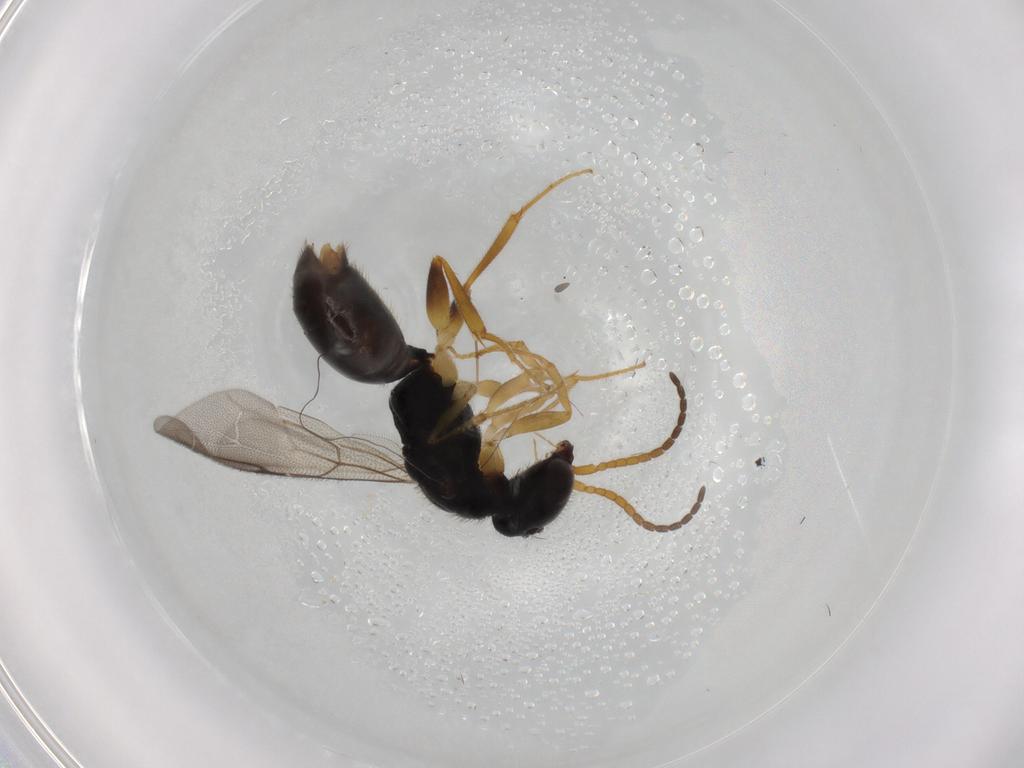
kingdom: Animalia
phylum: Arthropoda
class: Insecta
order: Hymenoptera
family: Bethylidae
